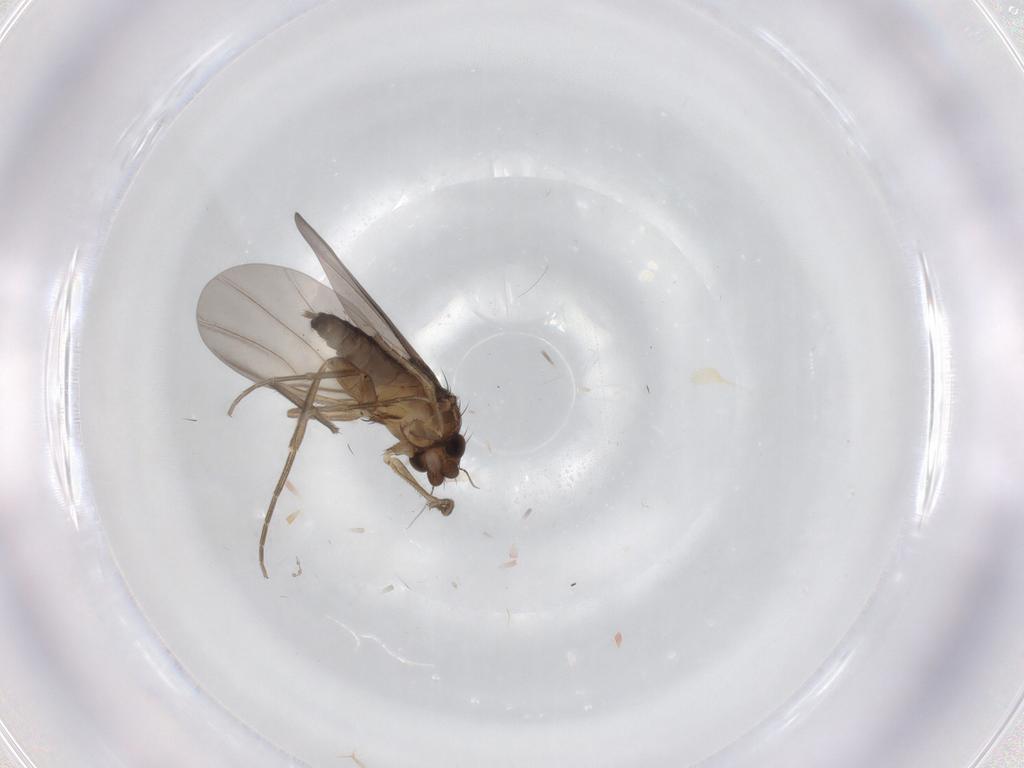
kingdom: Animalia
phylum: Arthropoda
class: Insecta
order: Diptera
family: Phoridae
